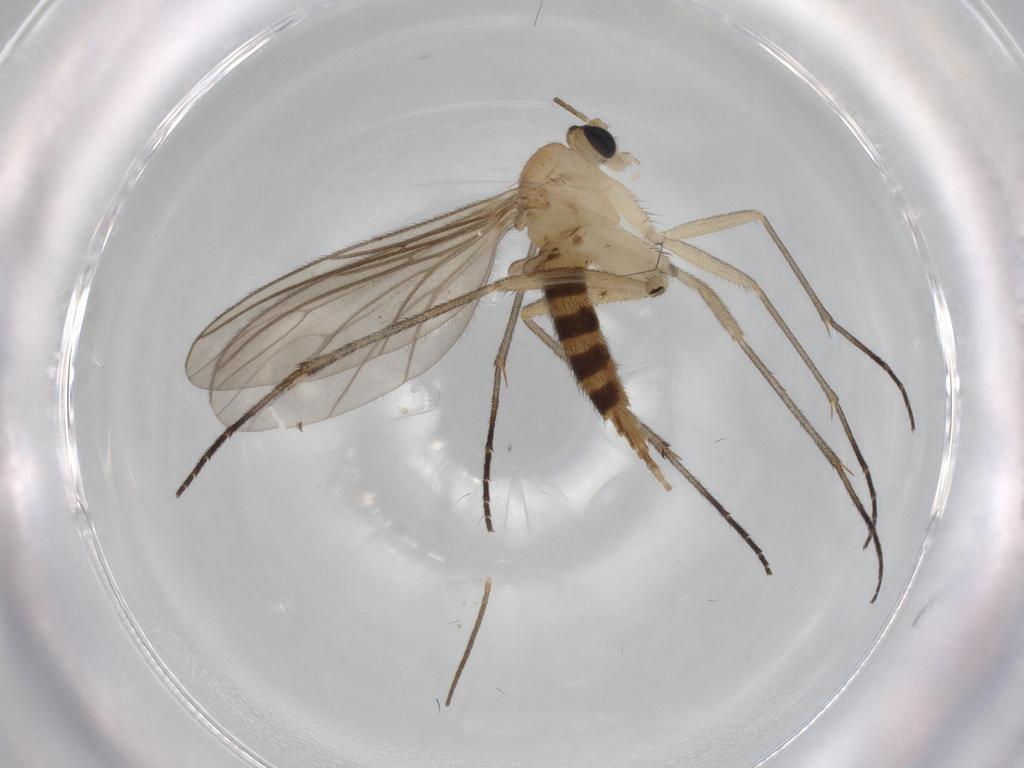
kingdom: Animalia
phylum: Arthropoda
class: Insecta
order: Diptera
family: Sciaridae
